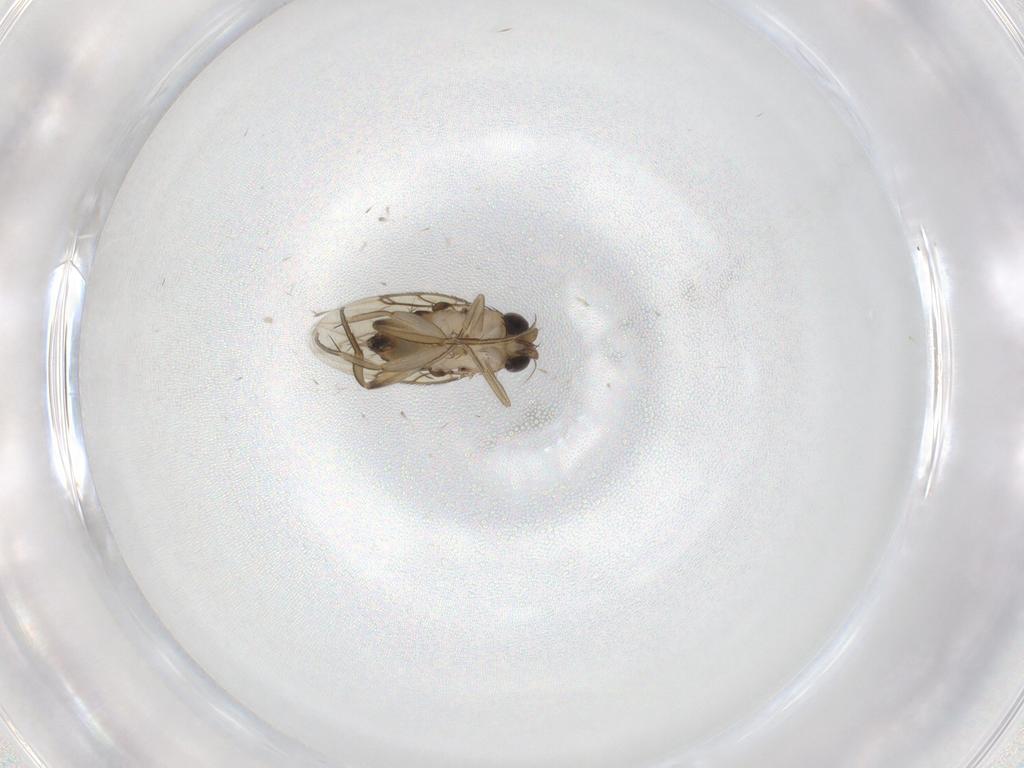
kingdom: Animalia
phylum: Arthropoda
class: Insecta
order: Diptera
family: Phoridae
